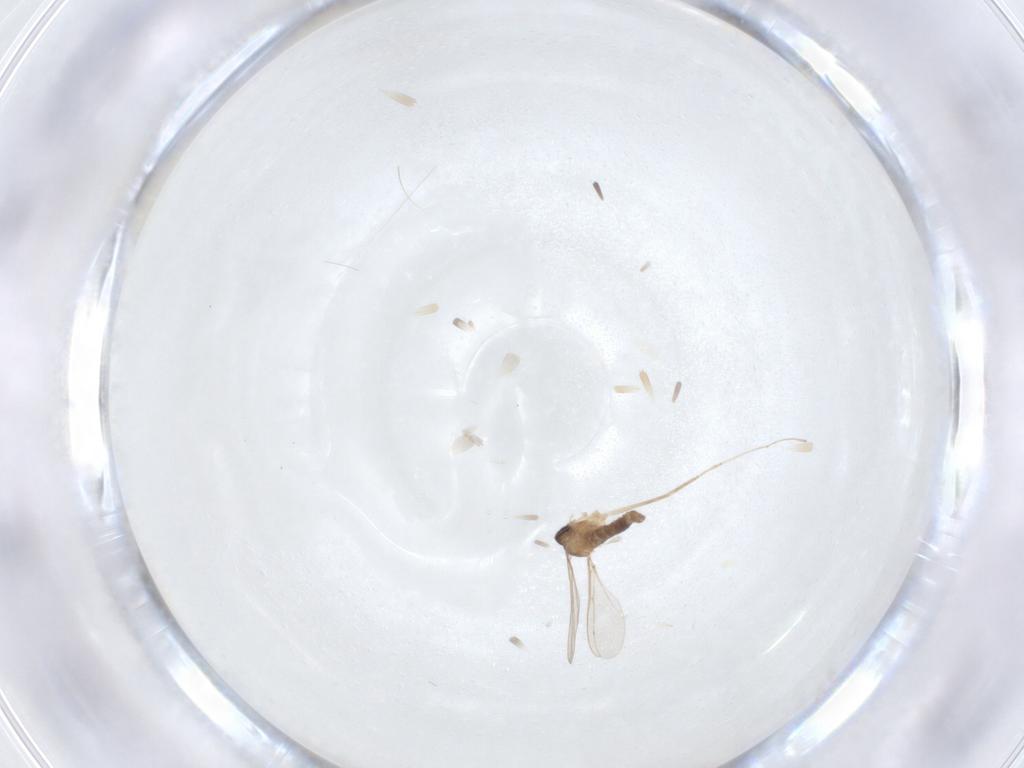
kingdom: Animalia
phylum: Arthropoda
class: Insecta
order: Diptera
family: Cecidomyiidae
